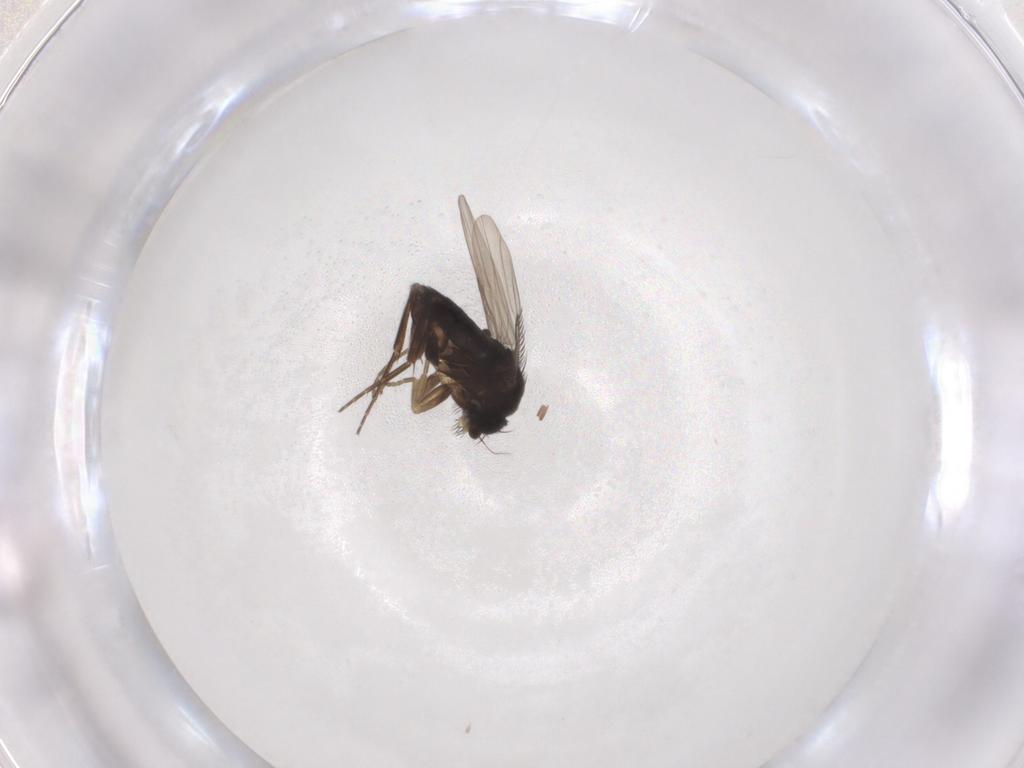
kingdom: Animalia
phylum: Arthropoda
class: Insecta
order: Diptera
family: Phoridae
